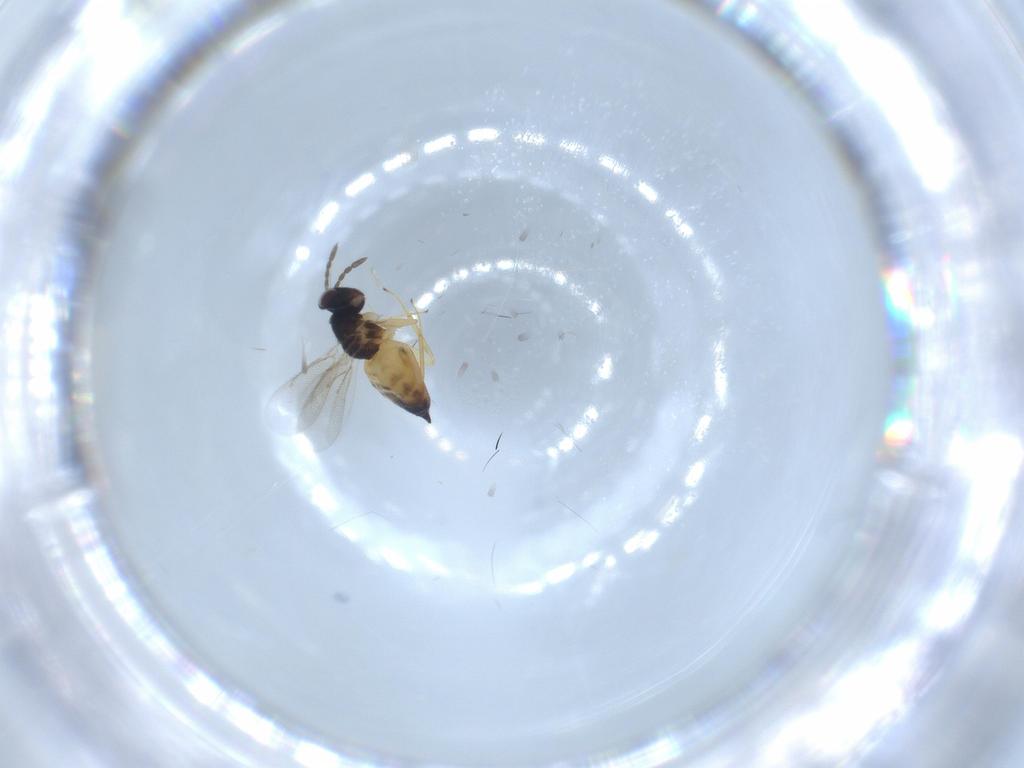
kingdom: Animalia
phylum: Arthropoda
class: Insecta
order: Hymenoptera
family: Eulophidae
